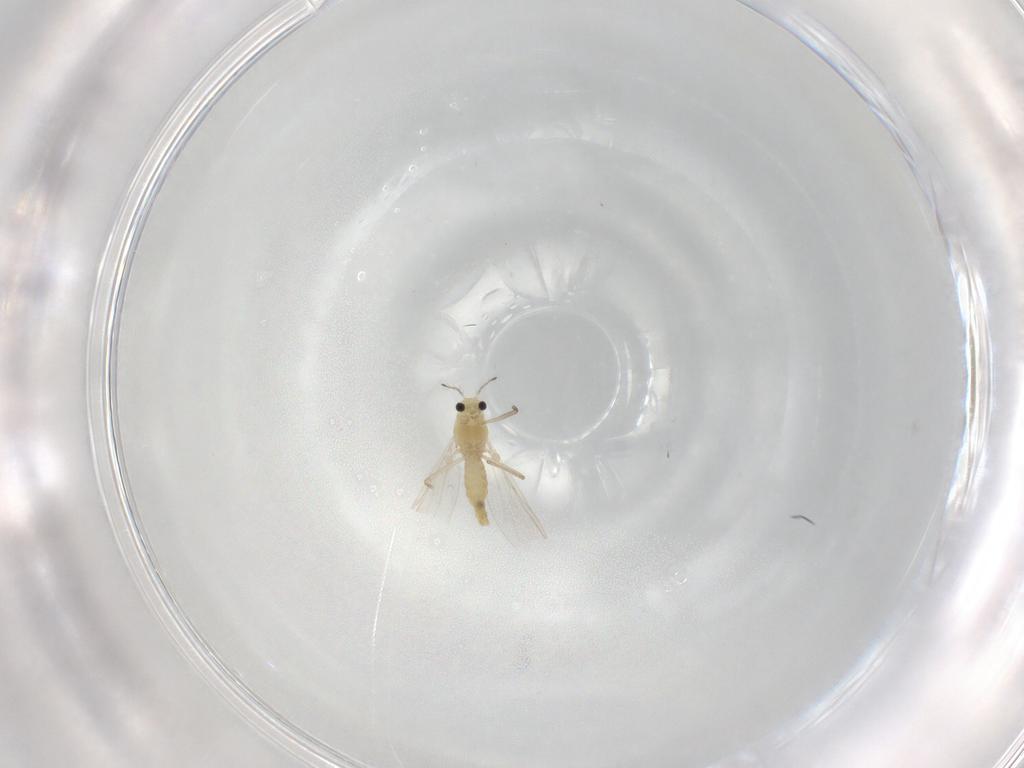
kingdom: Animalia
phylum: Arthropoda
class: Insecta
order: Diptera
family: Chironomidae
